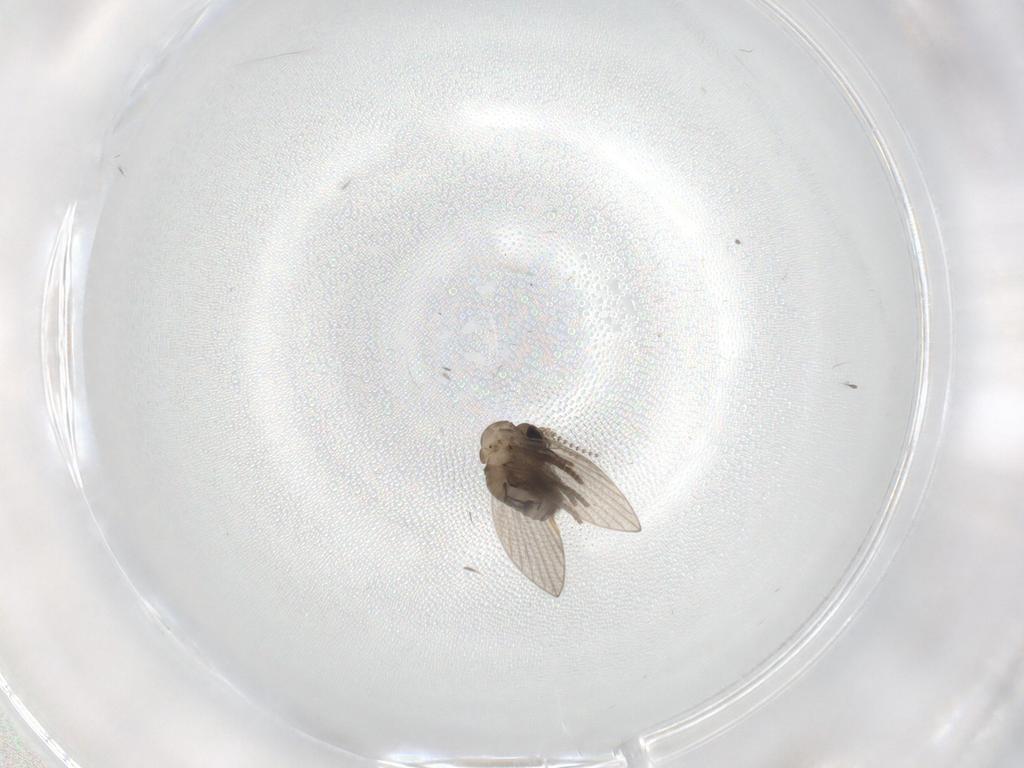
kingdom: Animalia
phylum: Arthropoda
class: Insecta
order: Diptera
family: Psychodidae
